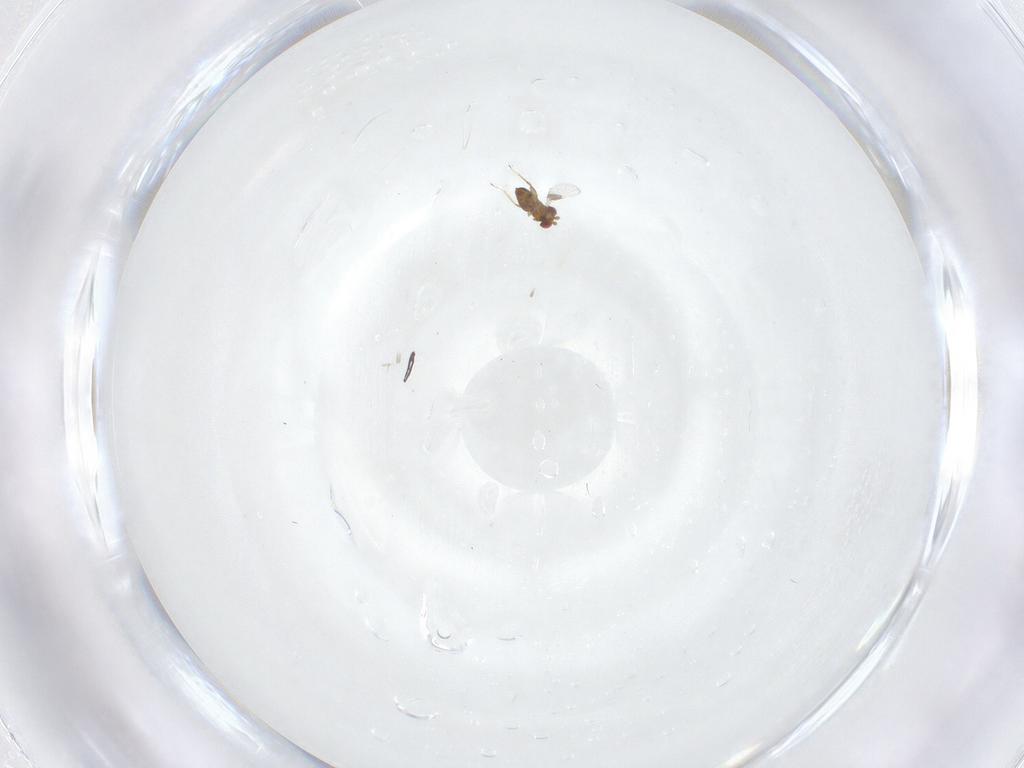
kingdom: Animalia
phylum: Arthropoda
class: Insecta
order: Hymenoptera
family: Trichogrammatidae
